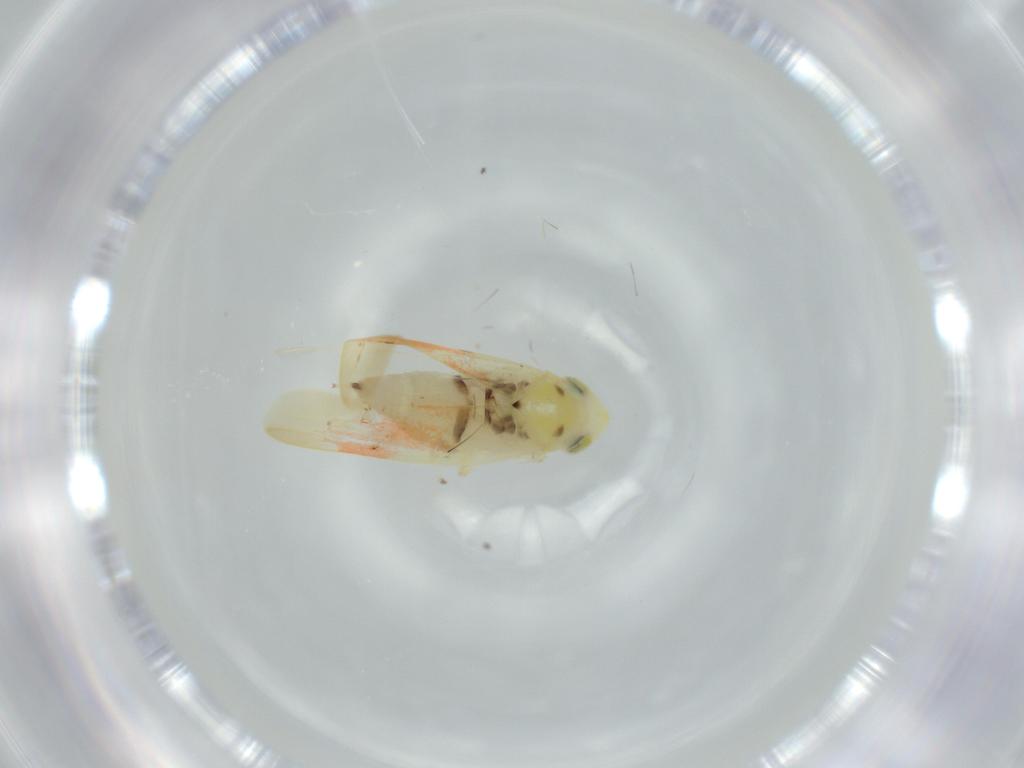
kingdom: Animalia
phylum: Arthropoda
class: Insecta
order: Hemiptera
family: Cicadellidae
